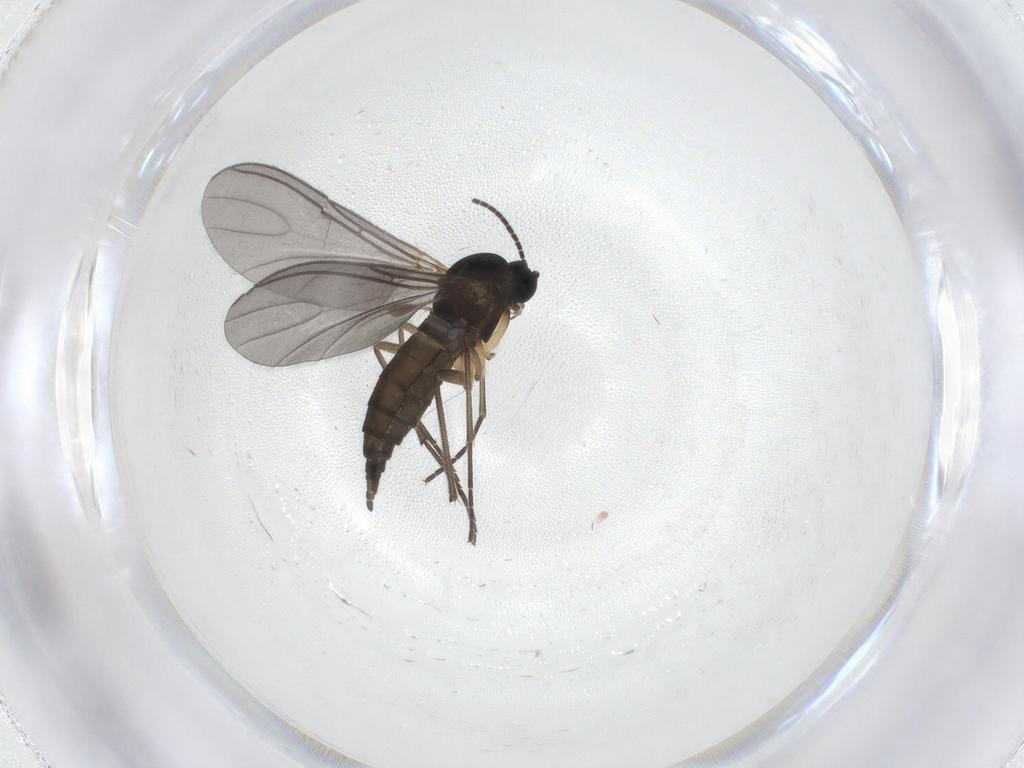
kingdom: Animalia
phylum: Arthropoda
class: Insecta
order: Diptera
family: Sciaridae
